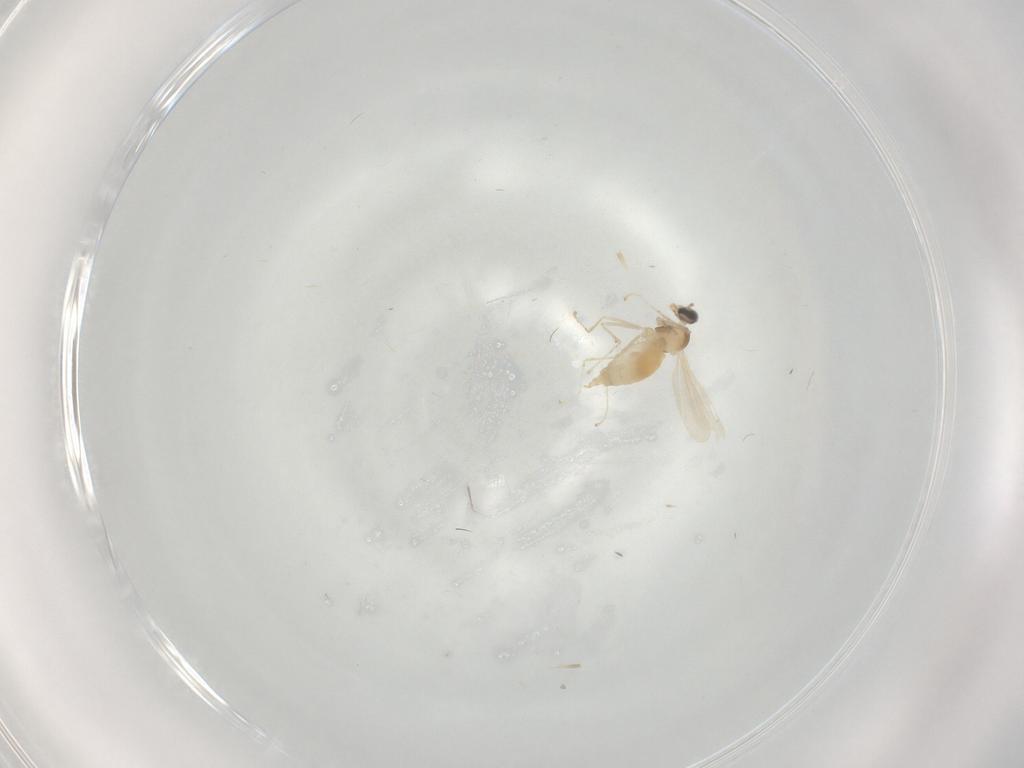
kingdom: Animalia
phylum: Arthropoda
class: Insecta
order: Diptera
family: Cecidomyiidae
